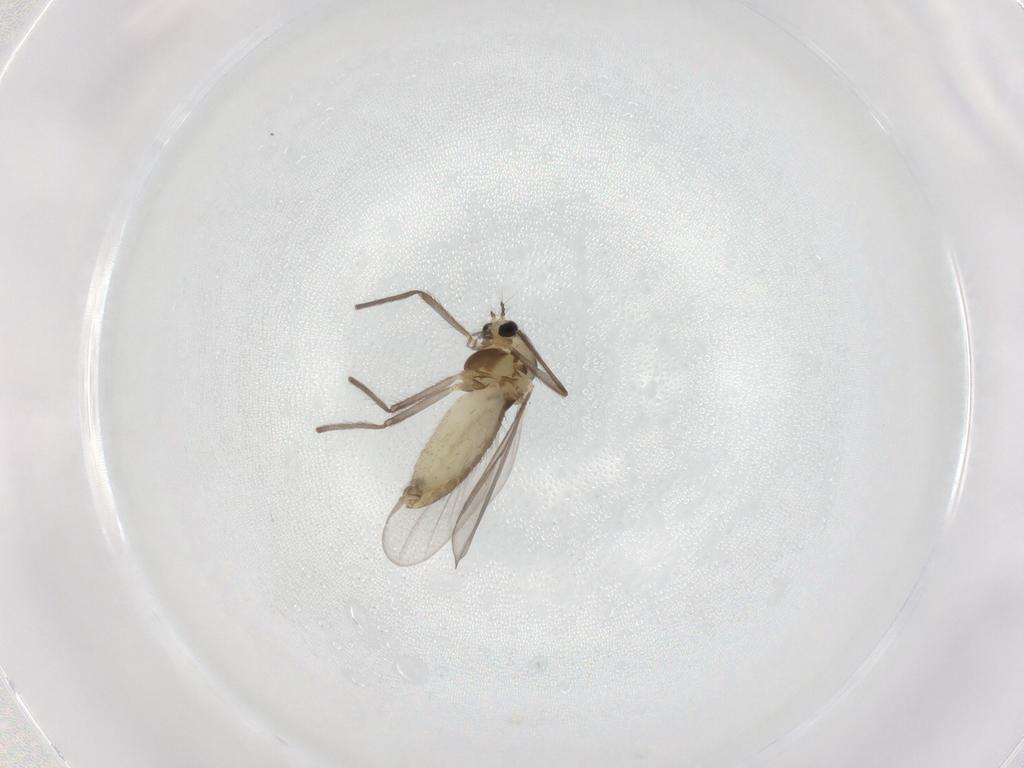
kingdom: Animalia
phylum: Arthropoda
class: Insecta
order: Diptera
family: Chironomidae
